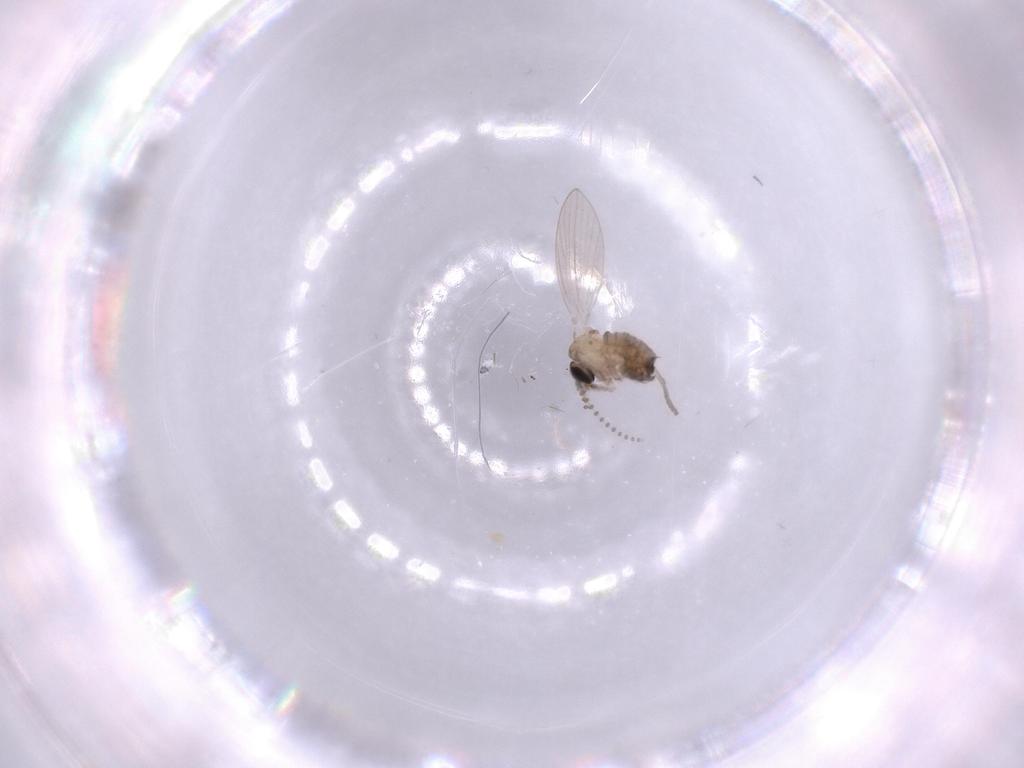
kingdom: Animalia
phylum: Arthropoda
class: Insecta
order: Diptera
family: Psychodidae
